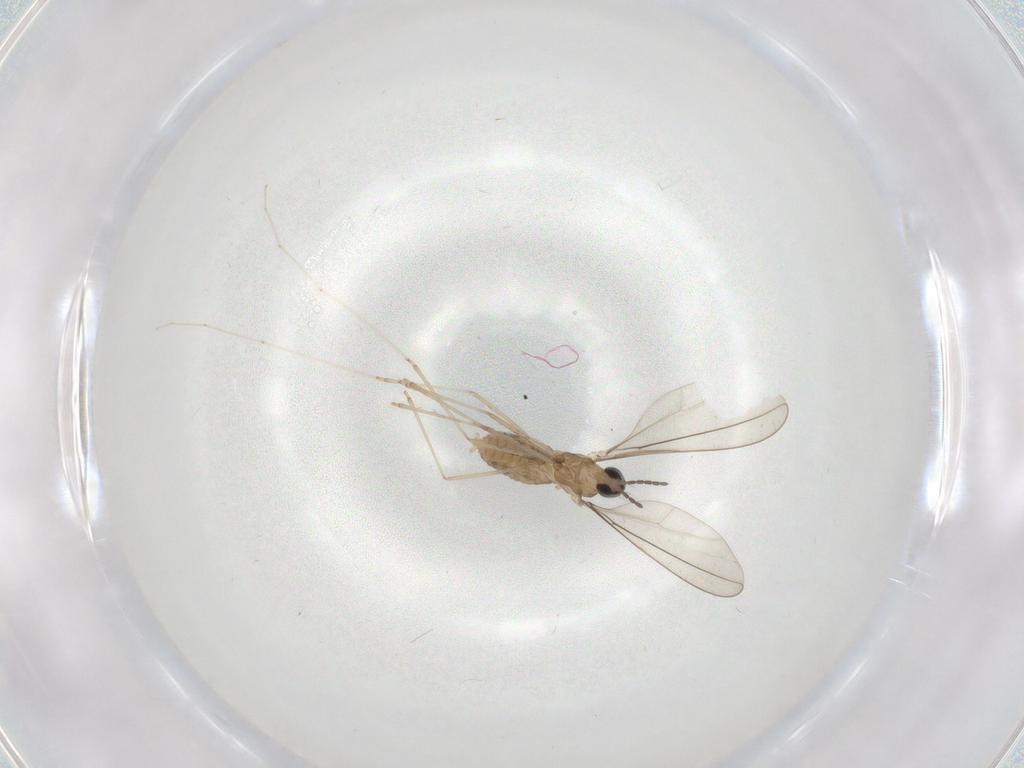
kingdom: Animalia
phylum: Arthropoda
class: Insecta
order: Diptera
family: Cecidomyiidae
